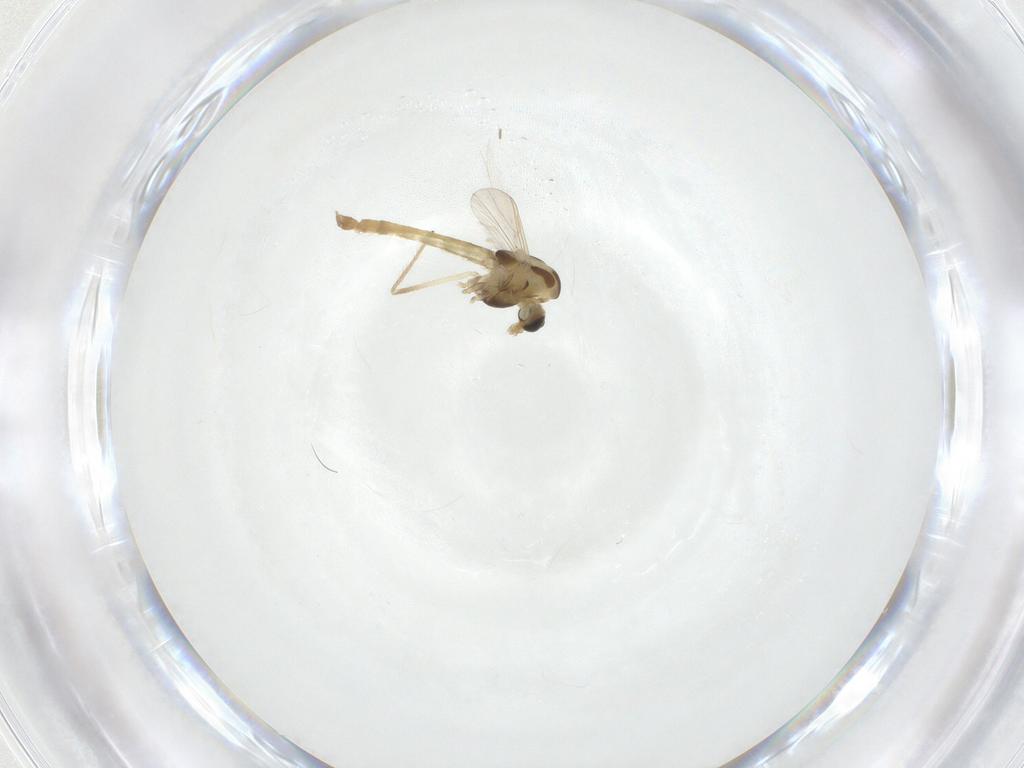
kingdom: Animalia
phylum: Arthropoda
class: Insecta
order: Diptera
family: Chironomidae
